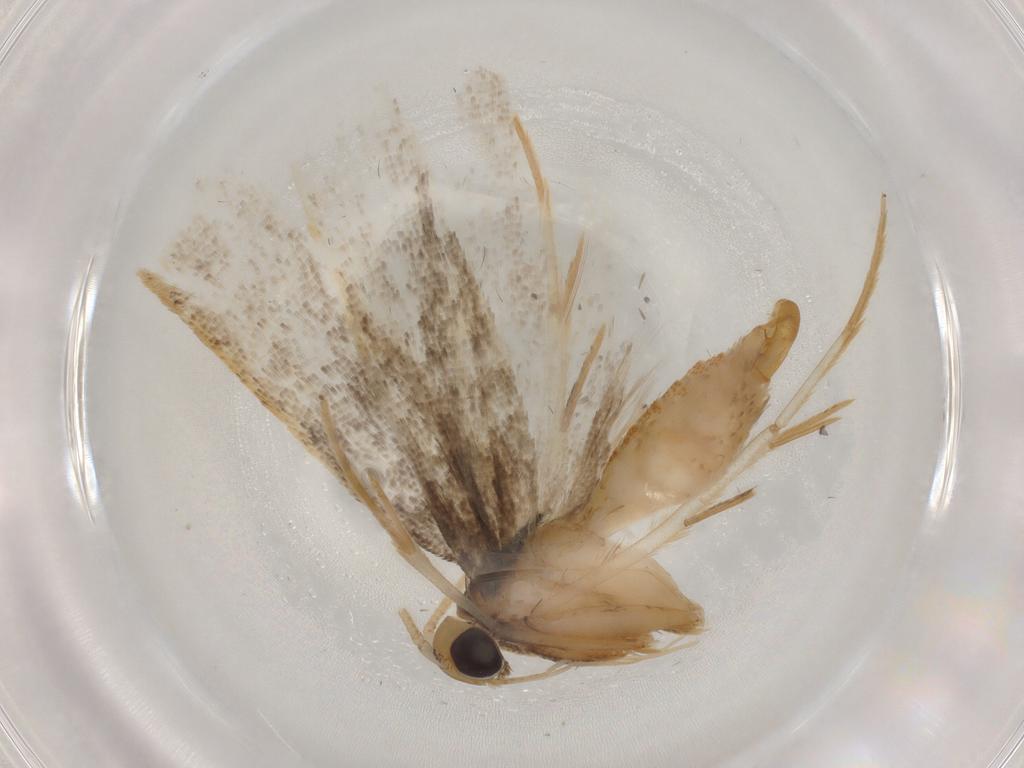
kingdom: Animalia
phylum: Arthropoda
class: Insecta
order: Lepidoptera
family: Lecithoceridae
